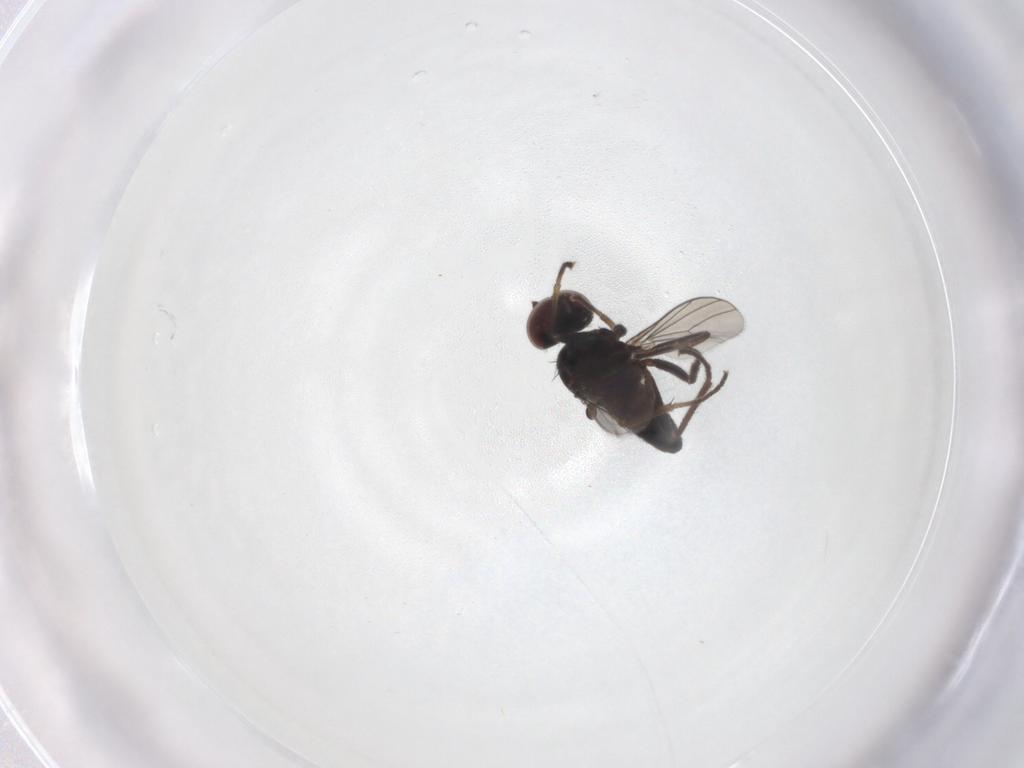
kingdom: Animalia
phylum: Arthropoda
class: Insecta
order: Diptera
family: Dolichopodidae
